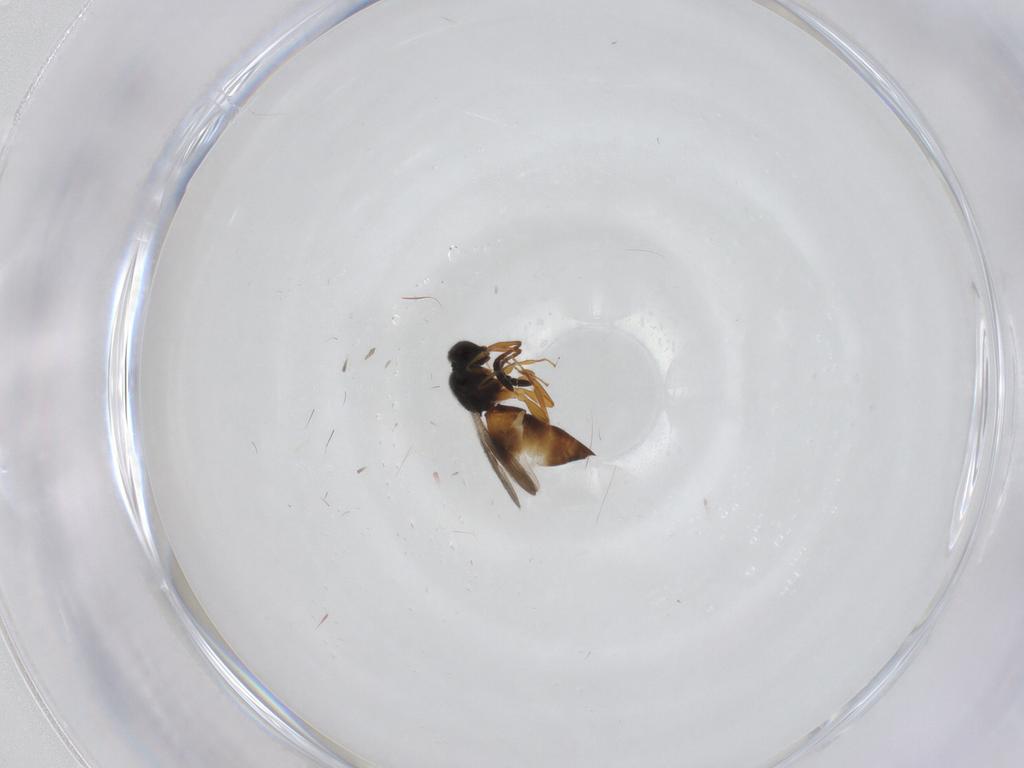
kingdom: Animalia
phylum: Arthropoda
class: Insecta
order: Hymenoptera
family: Ceraphronidae
